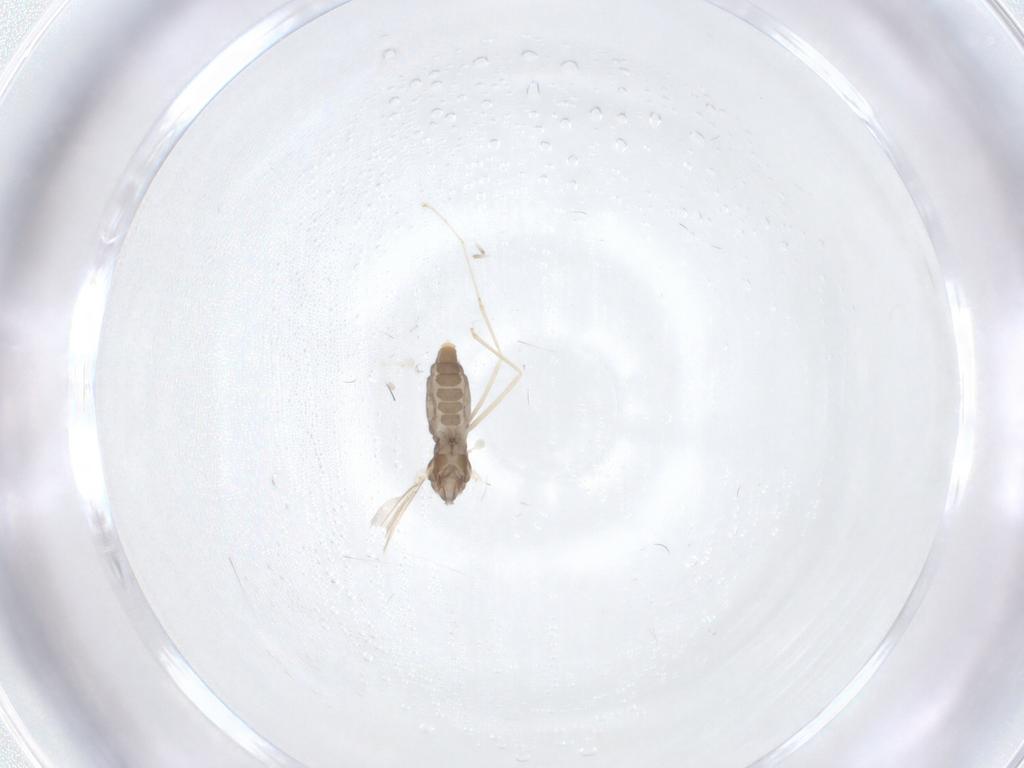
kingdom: Animalia
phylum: Arthropoda
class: Insecta
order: Diptera
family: Cecidomyiidae
